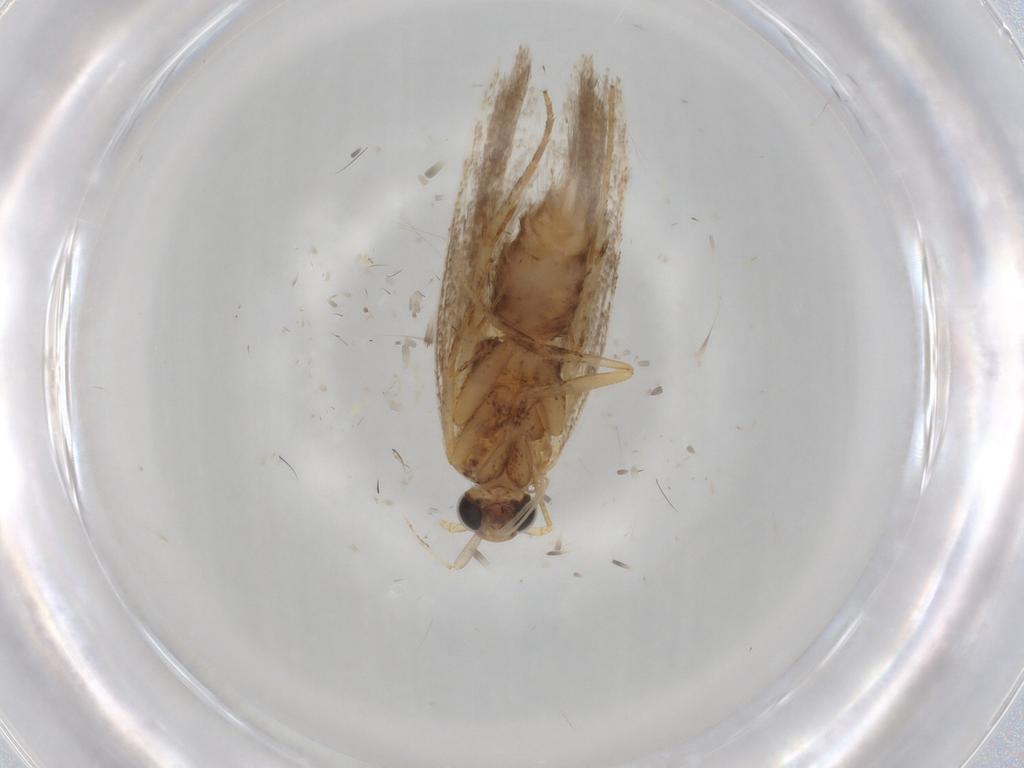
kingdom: Animalia
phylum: Arthropoda
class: Insecta
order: Lepidoptera
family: Gelechiidae
